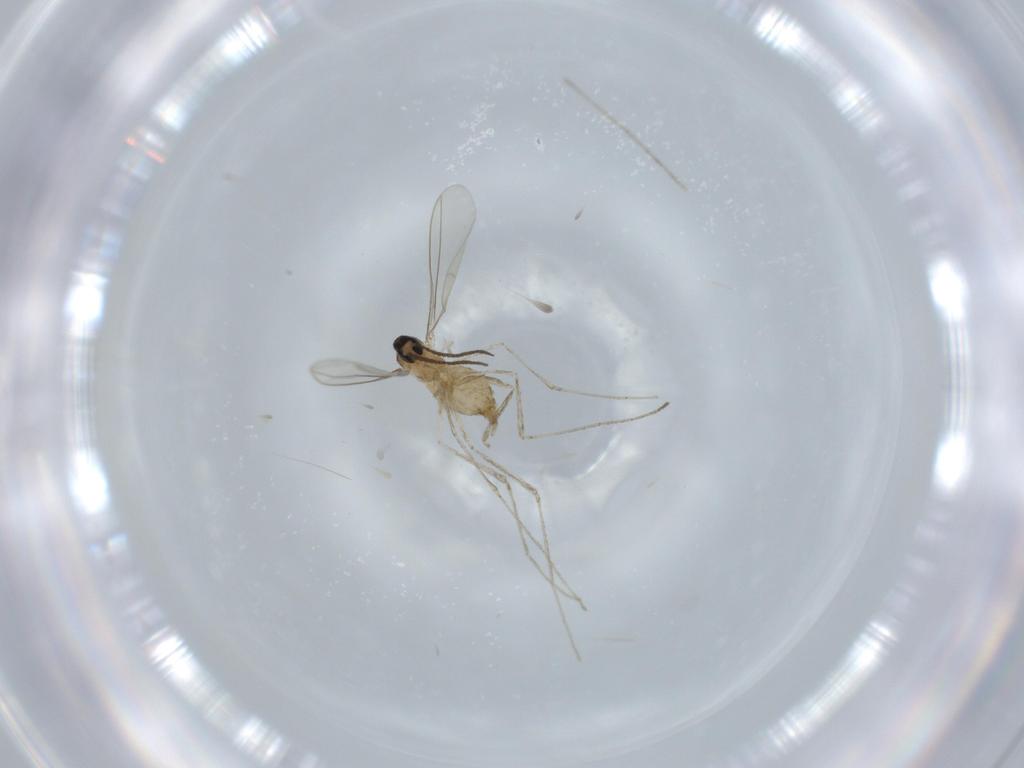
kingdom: Animalia
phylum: Arthropoda
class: Insecta
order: Diptera
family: Cecidomyiidae
